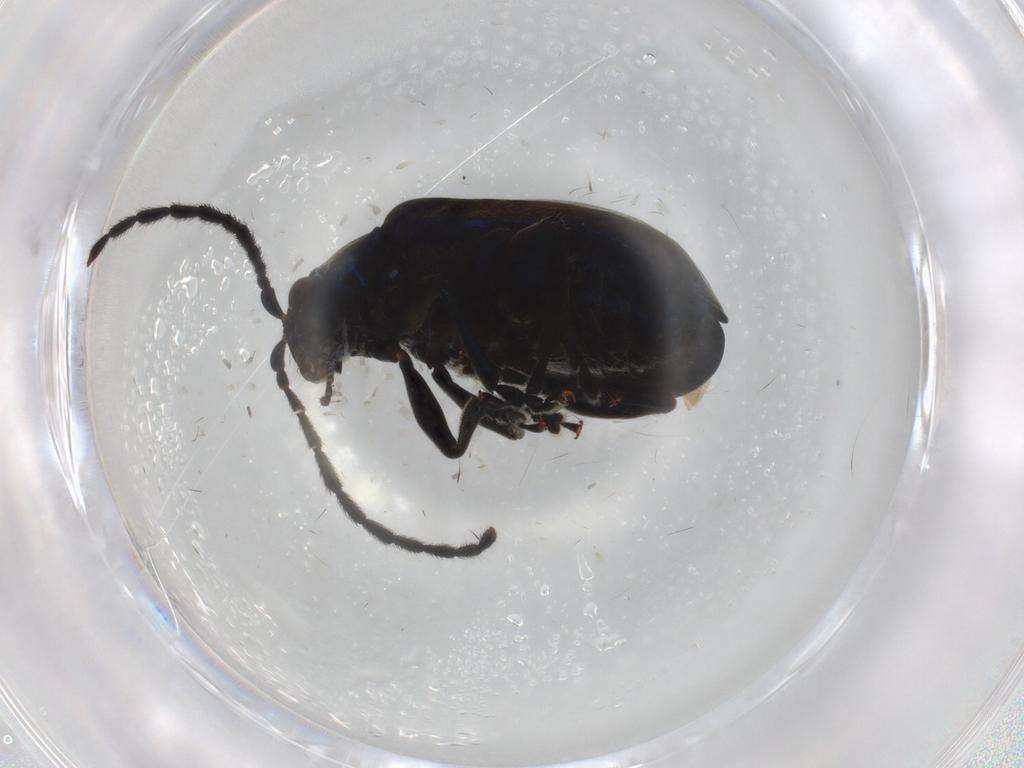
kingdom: Animalia
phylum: Arthropoda
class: Insecta
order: Coleoptera
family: Chrysomelidae
